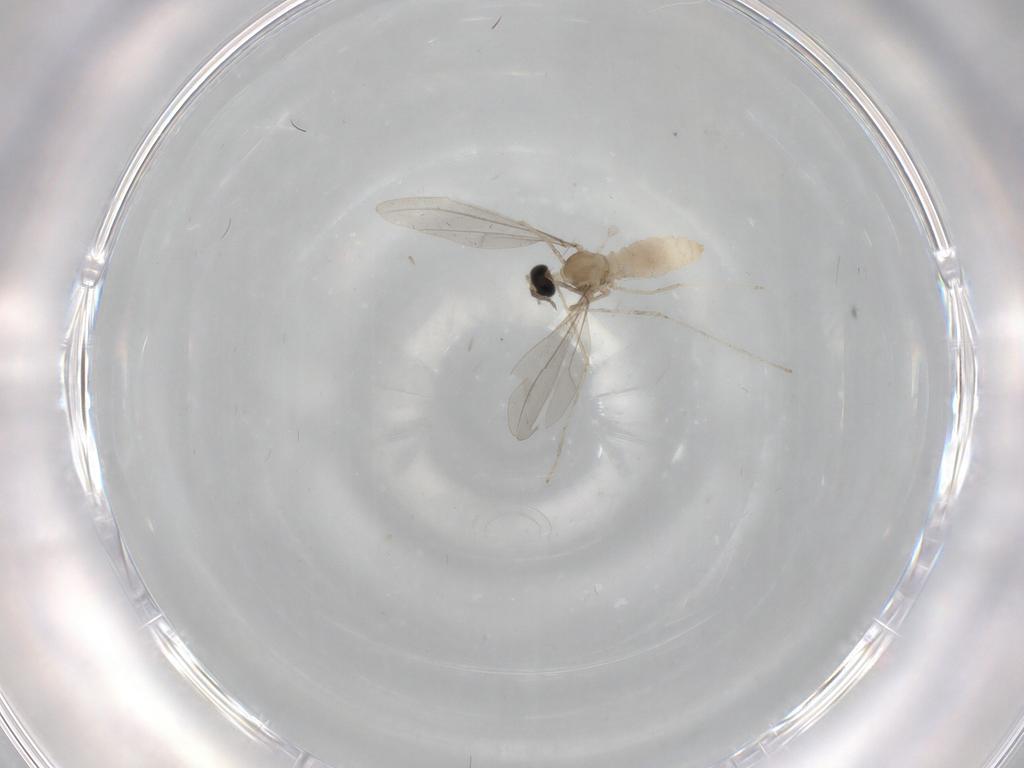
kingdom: Animalia
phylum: Arthropoda
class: Insecta
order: Diptera
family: Cecidomyiidae
